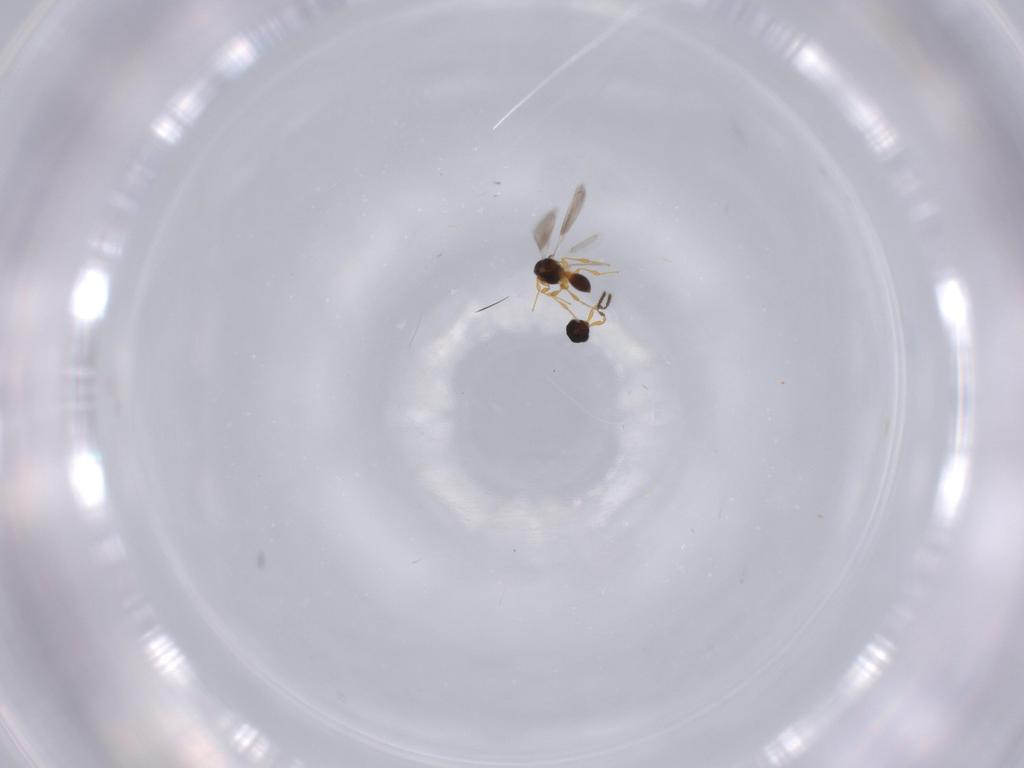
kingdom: Animalia
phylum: Arthropoda
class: Insecta
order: Hymenoptera
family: Platygastridae
